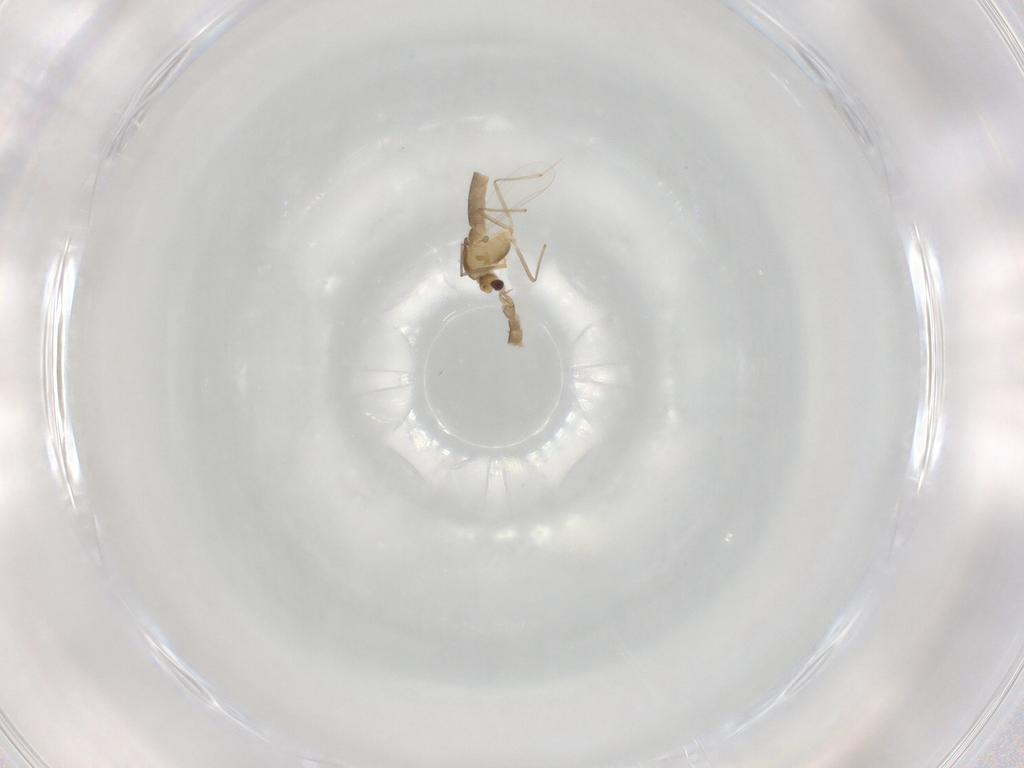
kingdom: Animalia
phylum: Arthropoda
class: Insecta
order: Diptera
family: Chironomidae
